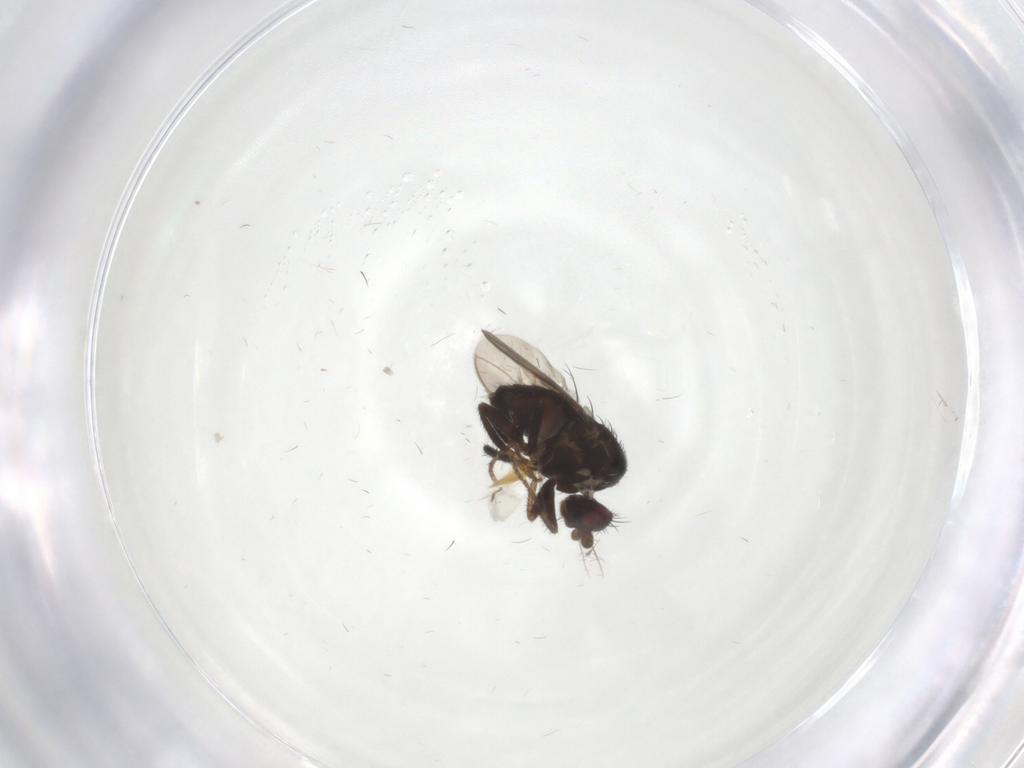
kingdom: Animalia
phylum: Arthropoda
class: Insecta
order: Diptera
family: Sphaeroceridae
